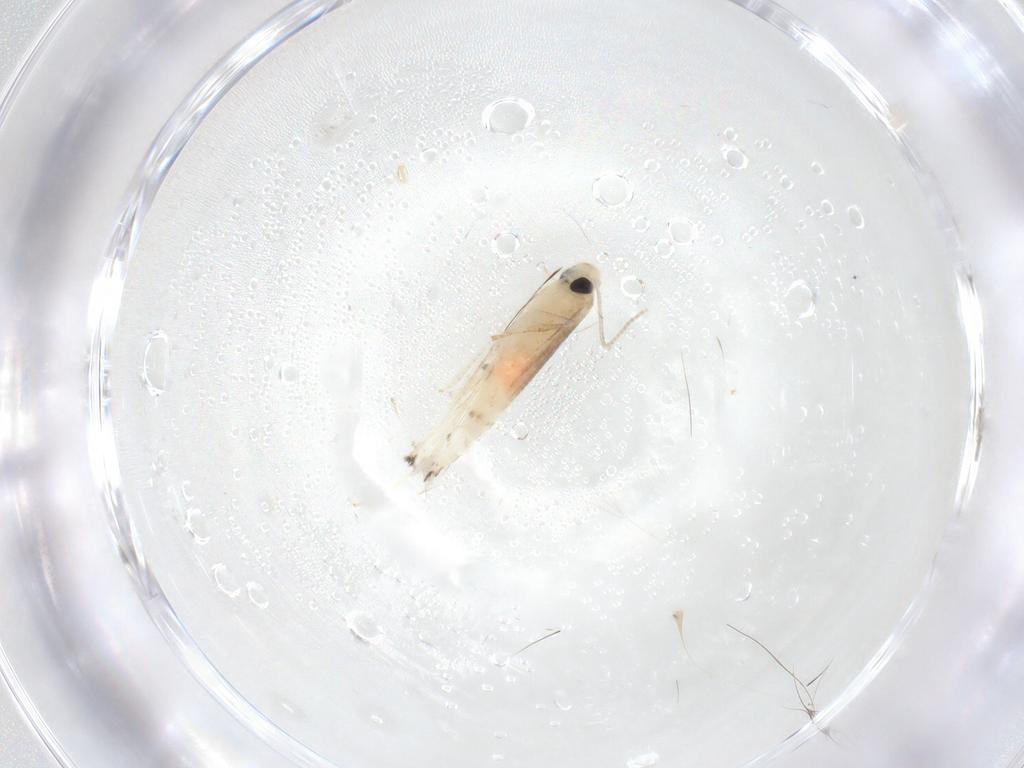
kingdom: Animalia
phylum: Arthropoda
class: Insecta
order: Lepidoptera
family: Gracillariidae
